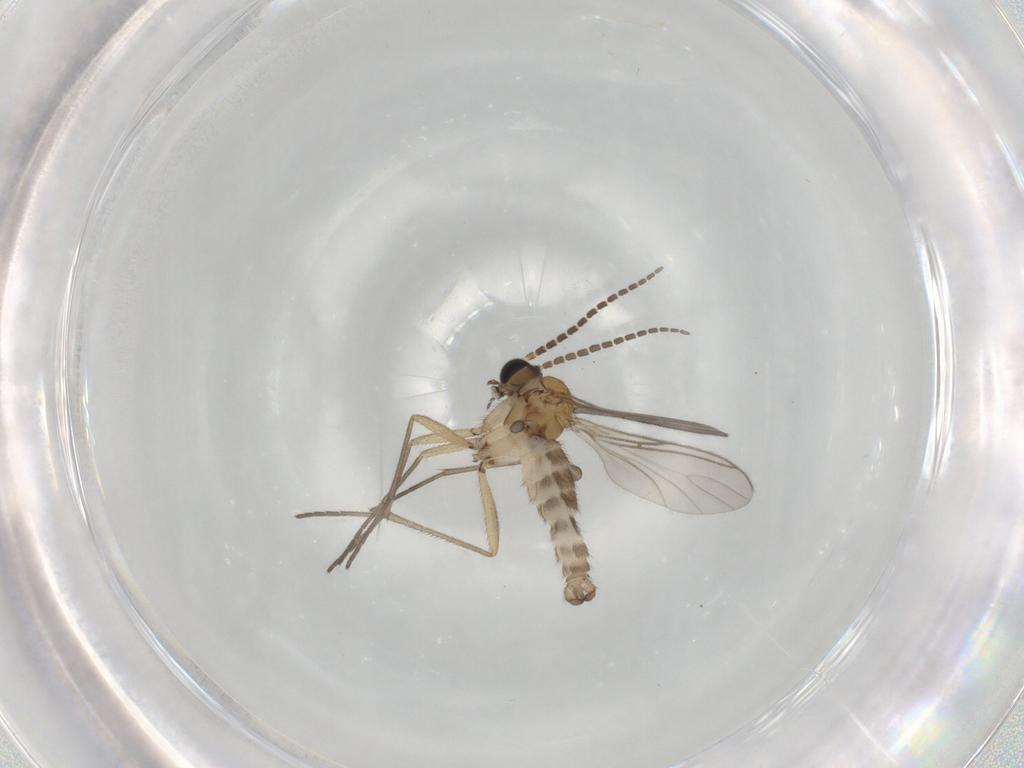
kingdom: Animalia
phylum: Arthropoda
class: Insecta
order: Diptera
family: Sciaridae
